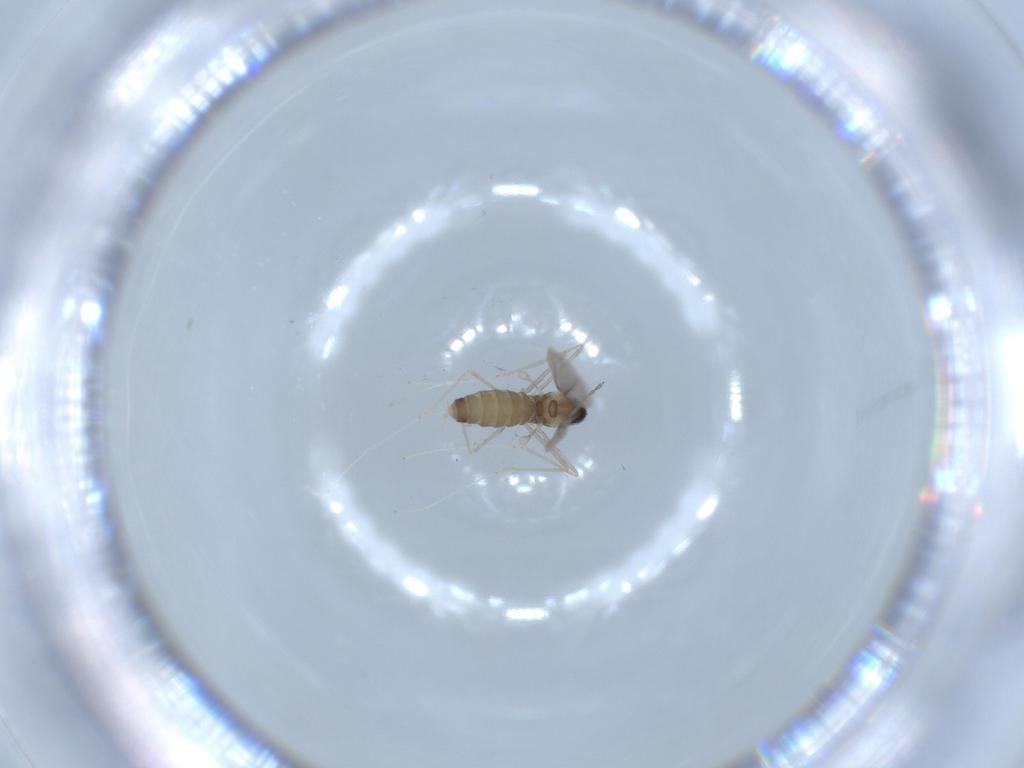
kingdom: Animalia
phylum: Arthropoda
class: Insecta
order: Diptera
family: Cecidomyiidae
